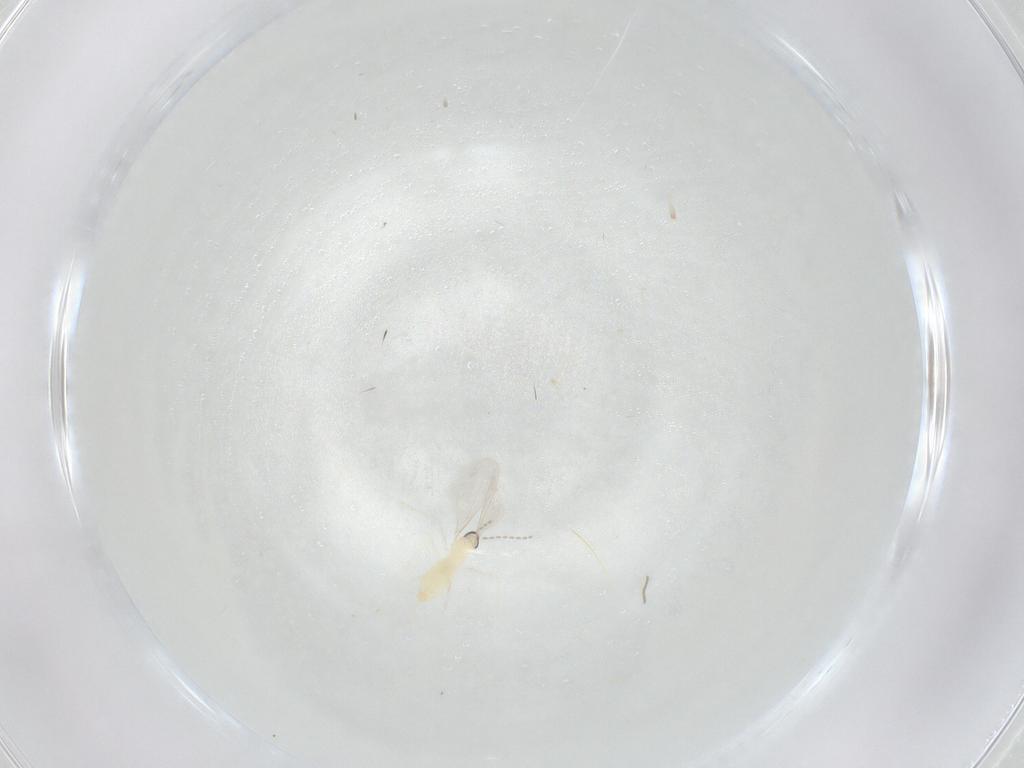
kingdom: Animalia
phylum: Arthropoda
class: Insecta
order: Diptera
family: Cecidomyiidae
